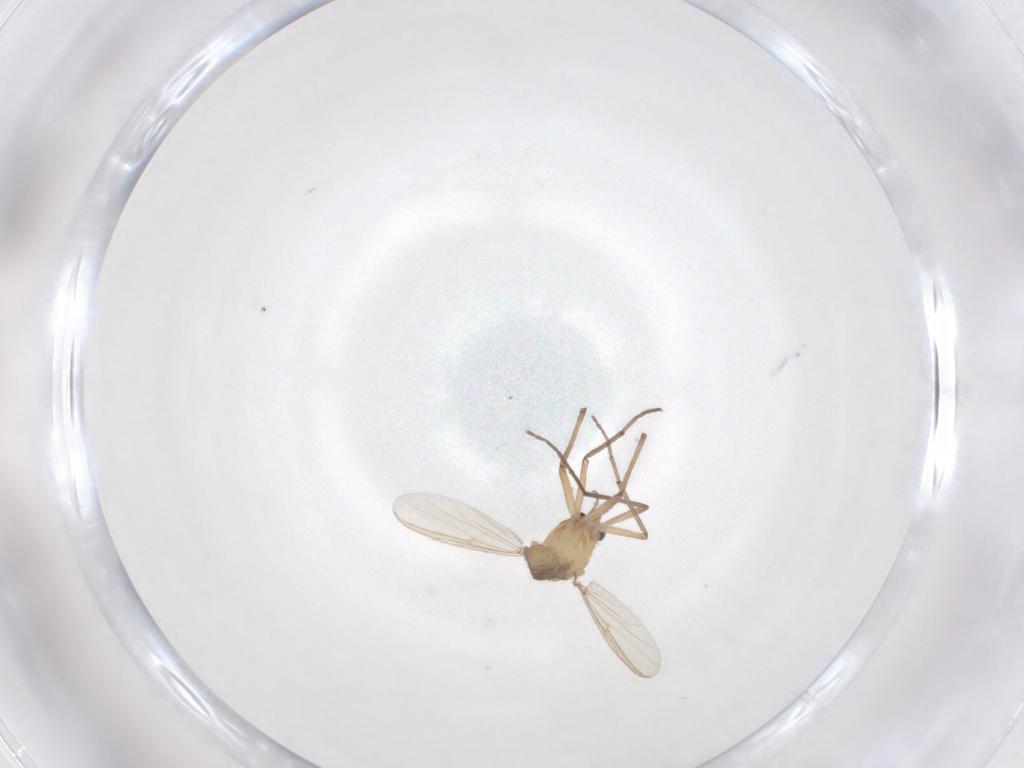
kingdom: Animalia
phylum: Arthropoda
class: Insecta
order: Diptera
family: Chironomidae
